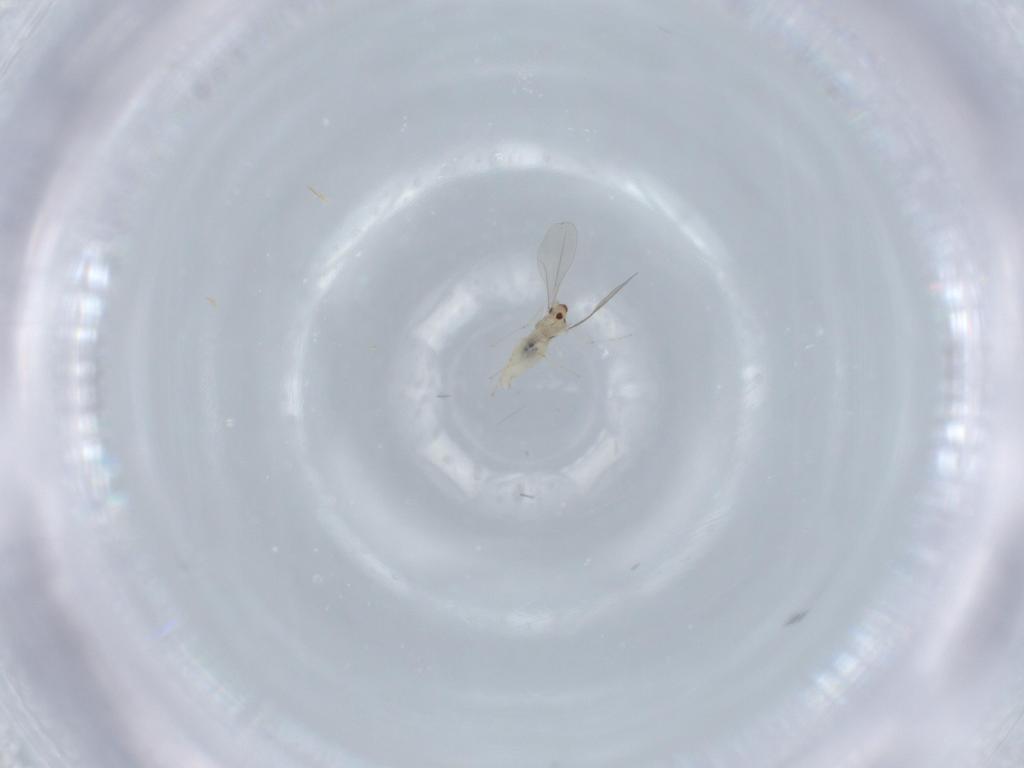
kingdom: Animalia
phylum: Arthropoda
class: Insecta
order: Diptera
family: Cecidomyiidae
